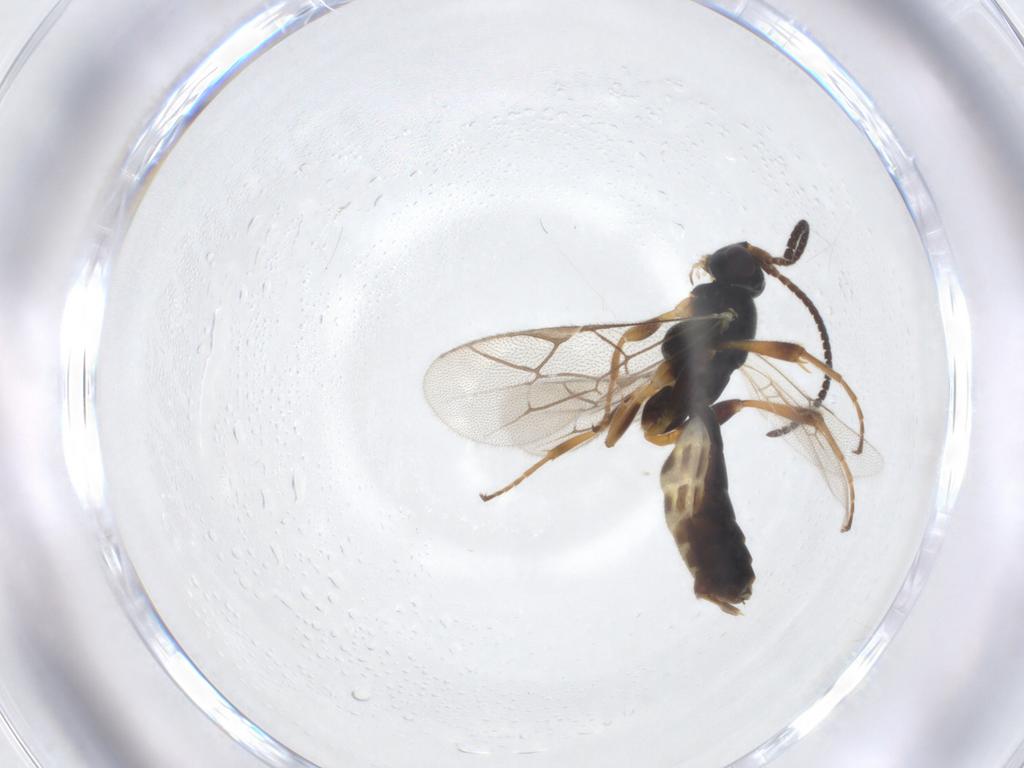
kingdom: Animalia
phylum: Arthropoda
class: Insecta
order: Hymenoptera
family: Ichneumonidae
